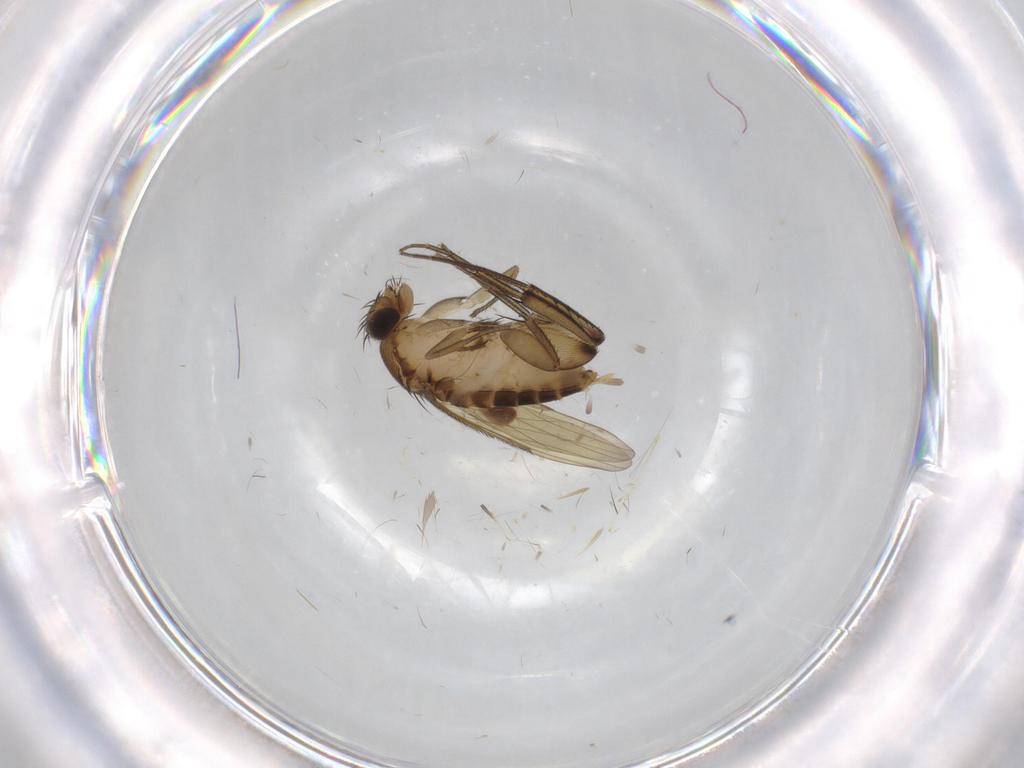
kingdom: Animalia
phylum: Arthropoda
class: Insecta
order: Diptera
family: Phoridae
